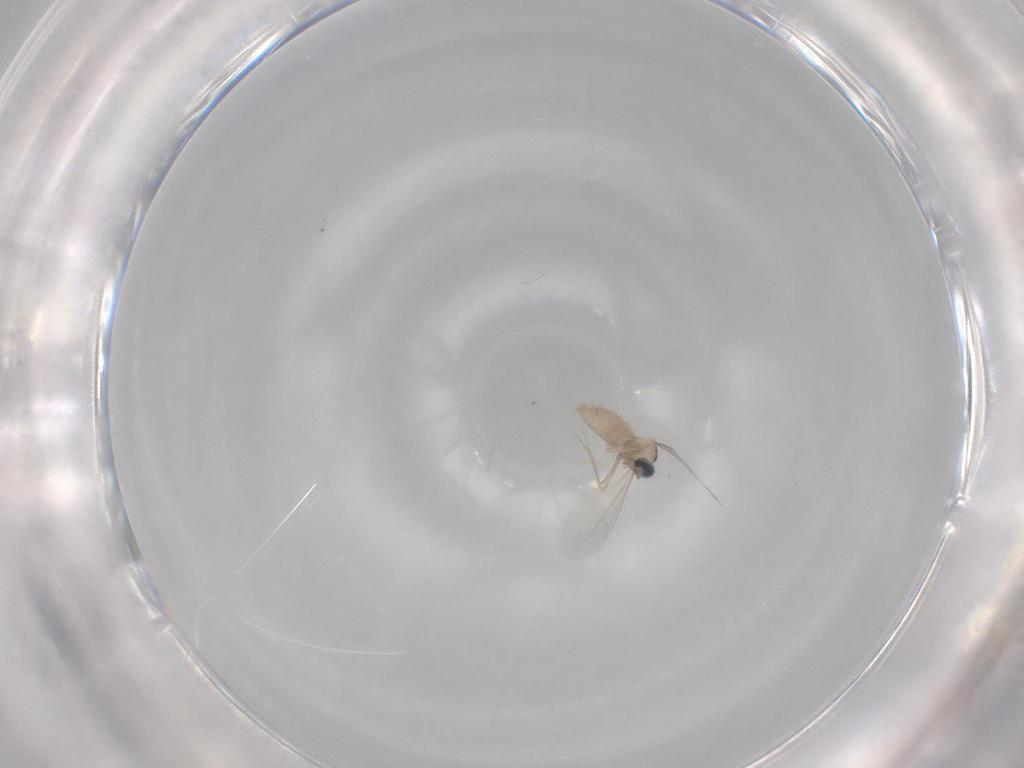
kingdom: Animalia
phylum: Arthropoda
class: Insecta
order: Diptera
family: Cecidomyiidae
